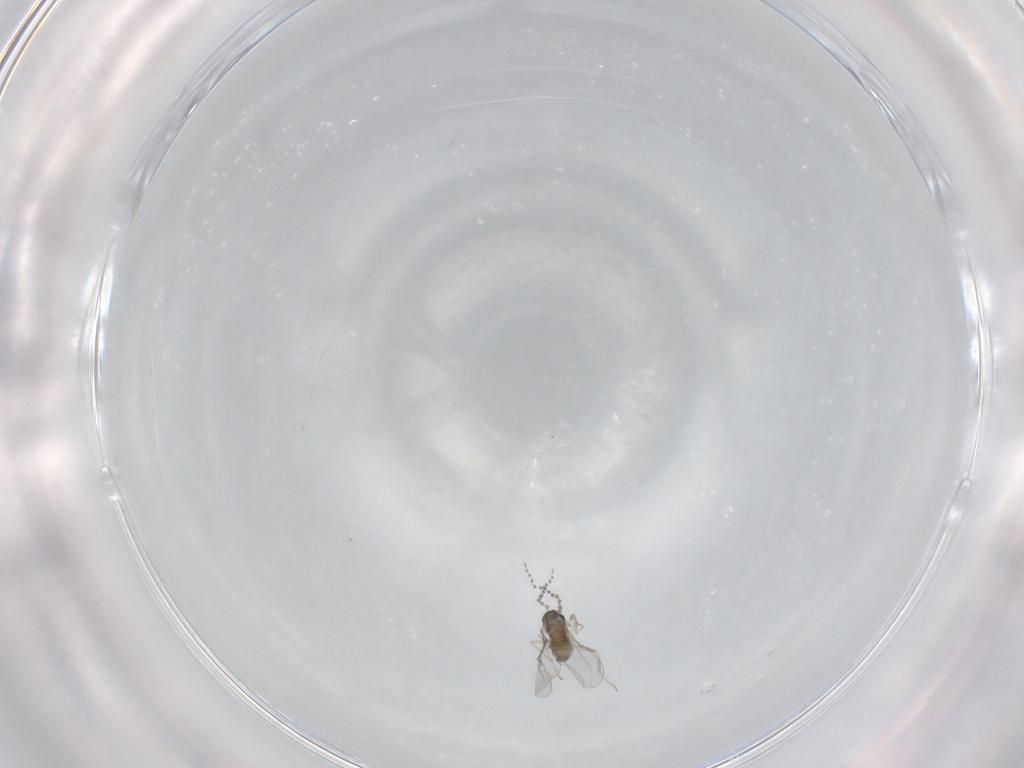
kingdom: Animalia
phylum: Arthropoda
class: Insecta
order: Diptera
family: Cecidomyiidae
